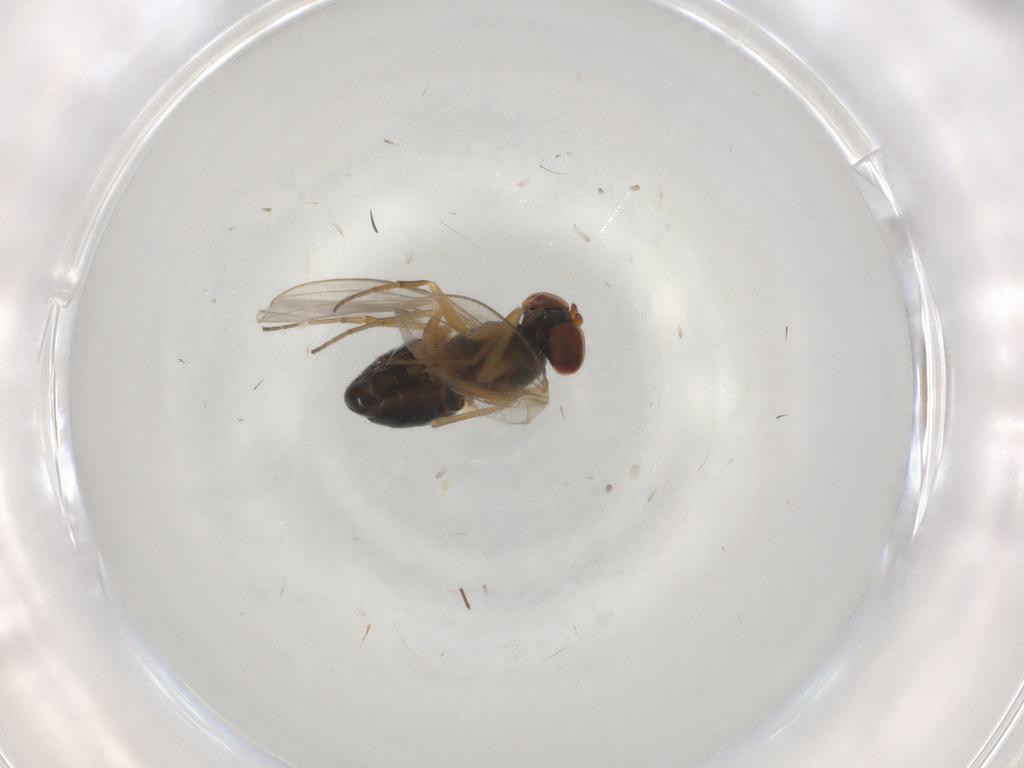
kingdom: Animalia
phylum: Arthropoda
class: Insecta
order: Diptera
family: Dolichopodidae
